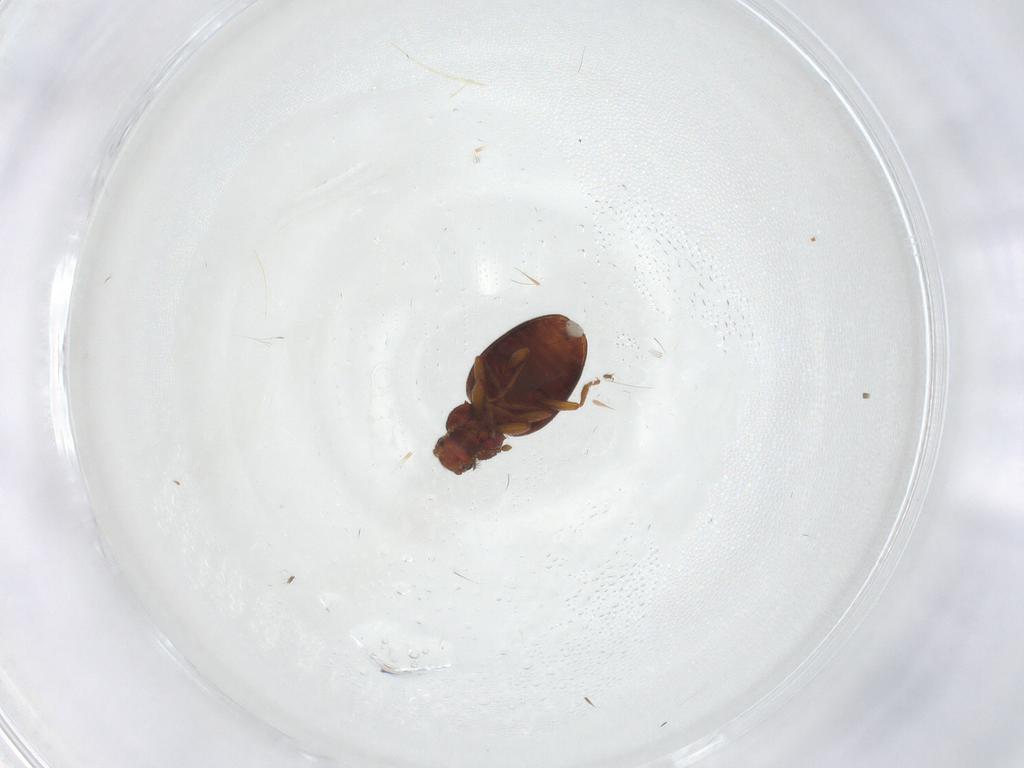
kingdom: Animalia
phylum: Arthropoda
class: Insecta
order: Coleoptera
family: Latridiidae
